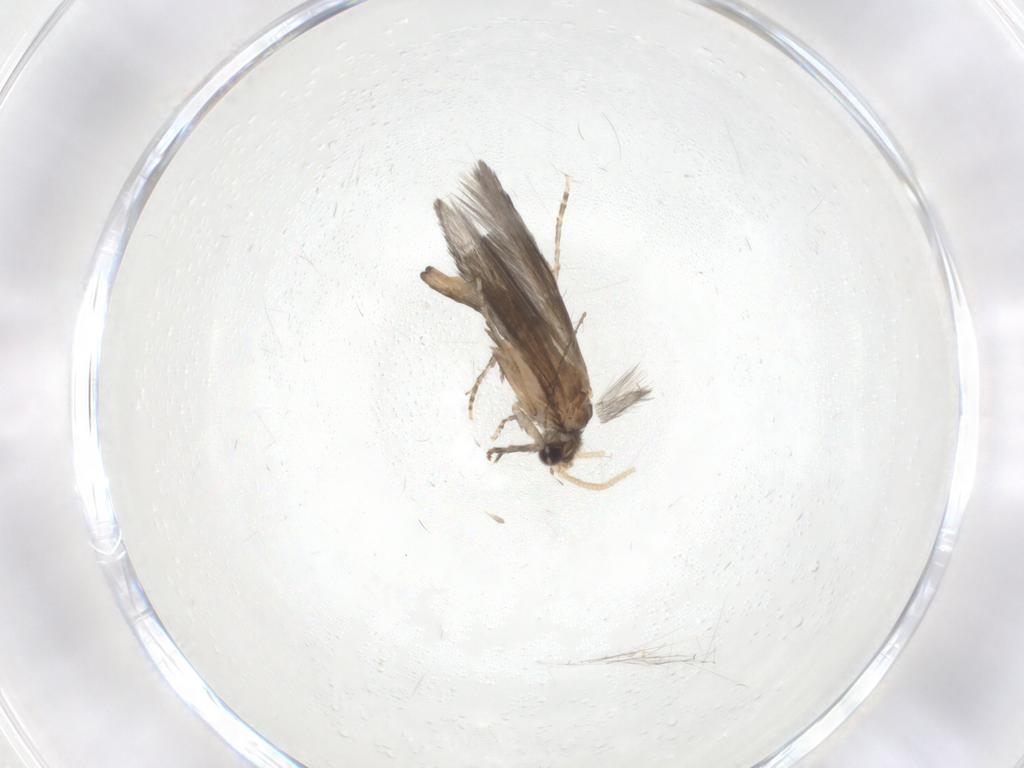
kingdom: Animalia
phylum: Arthropoda
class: Insecta
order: Trichoptera
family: Hydroptilidae
